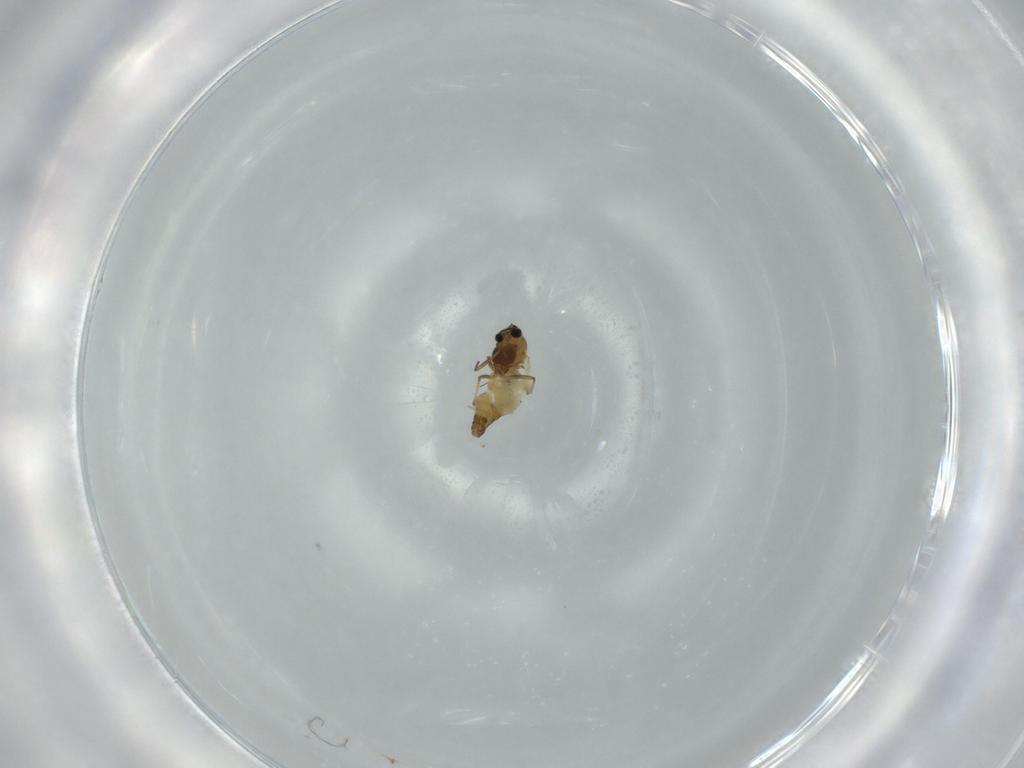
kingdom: Animalia
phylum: Arthropoda
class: Insecta
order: Diptera
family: Chironomidae
